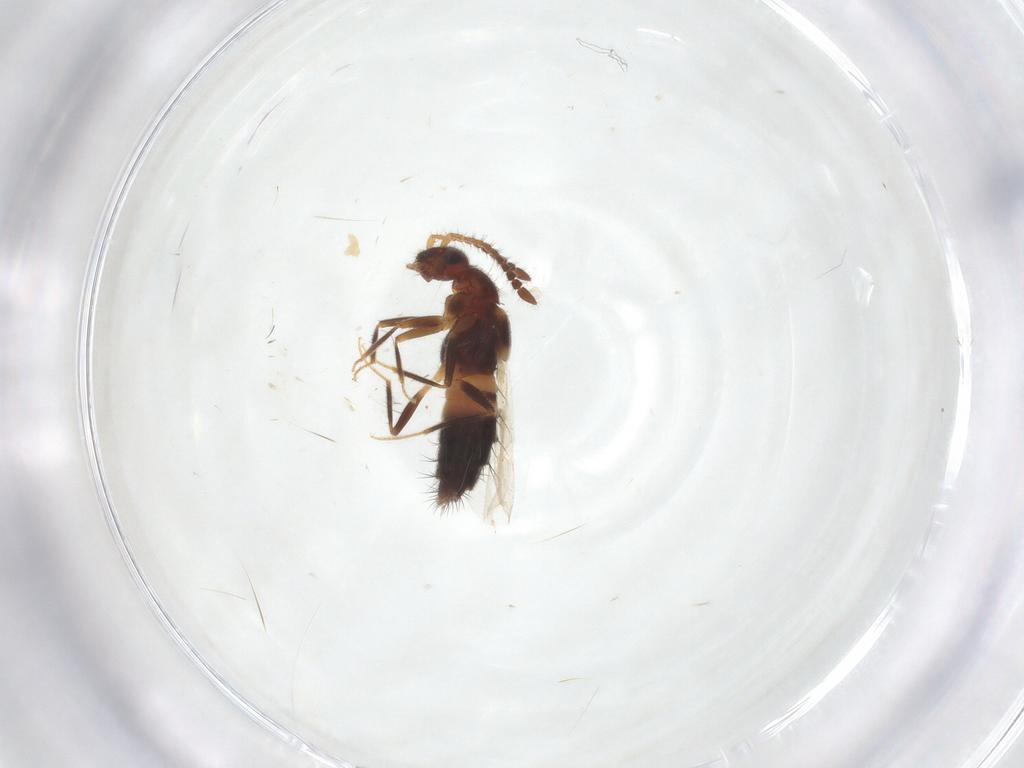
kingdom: Animalia
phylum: Arthropoda
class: Insecta
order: Coleoptera
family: Staphylinidae
